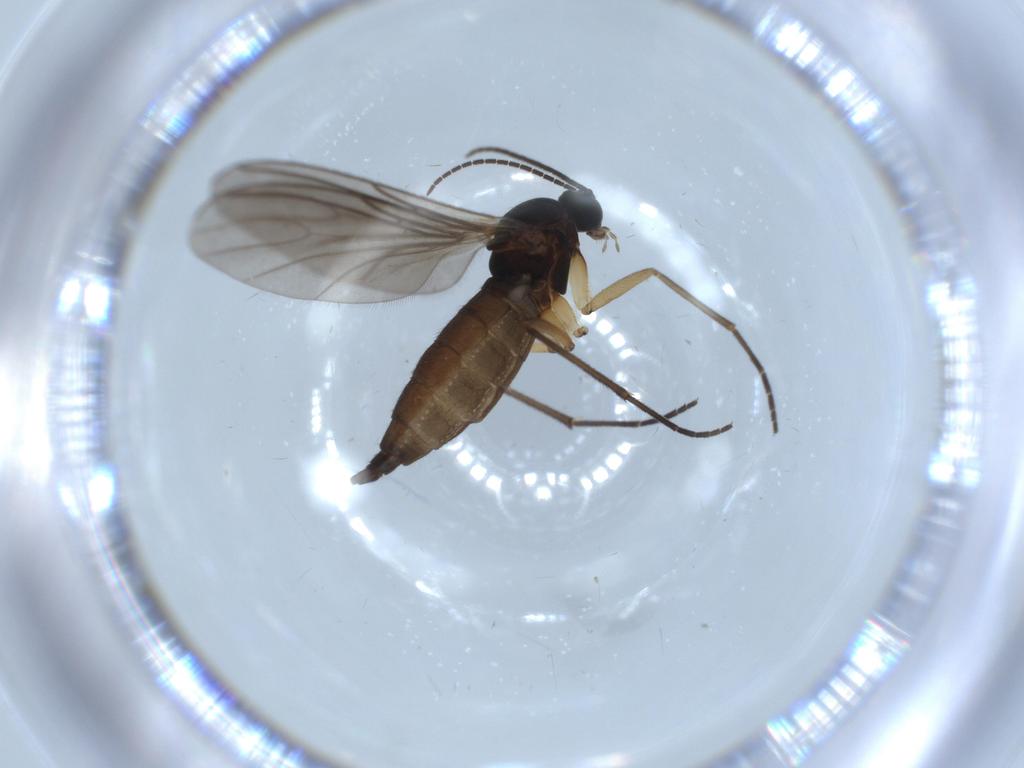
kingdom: Animalia
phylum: Arthropoda
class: Insecta
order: Diptera
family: Sciaridae
